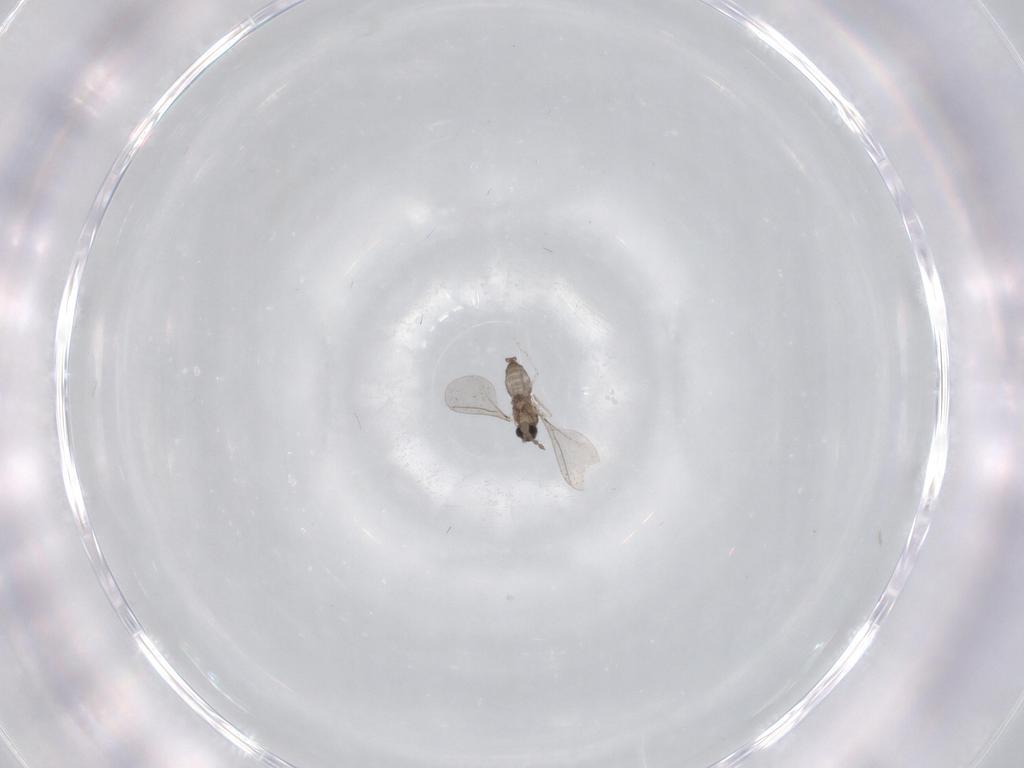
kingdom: Animalia
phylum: Arthropoda
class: Insecta
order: Diptera
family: Cecidomyiidae
